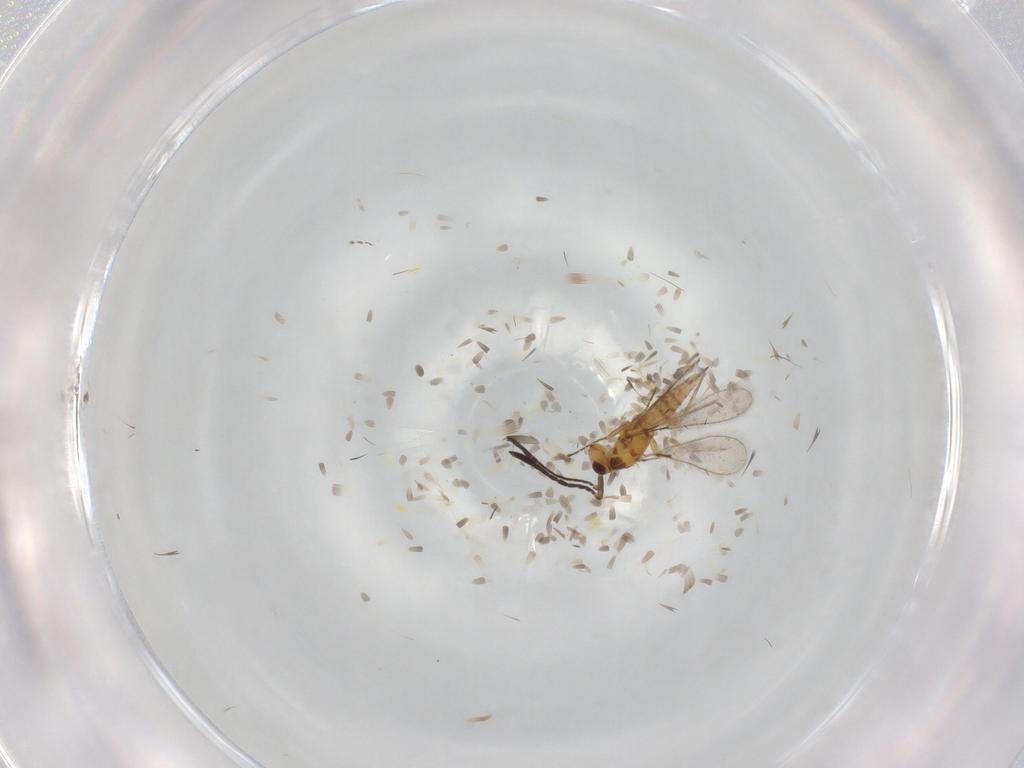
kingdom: Animalia
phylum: Arthropoda
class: Insecta
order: Hymenoptera
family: Mymaridae
